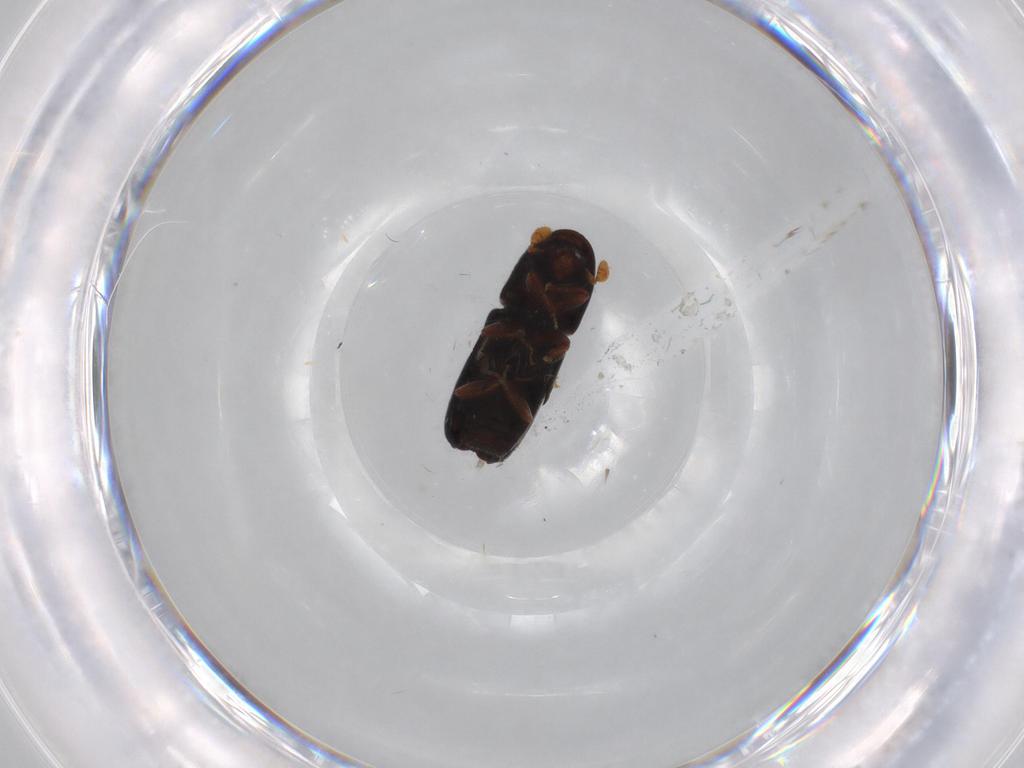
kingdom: Animalia
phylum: Arthropoda
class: Insecta
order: Coleoptera
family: Curculionidae
